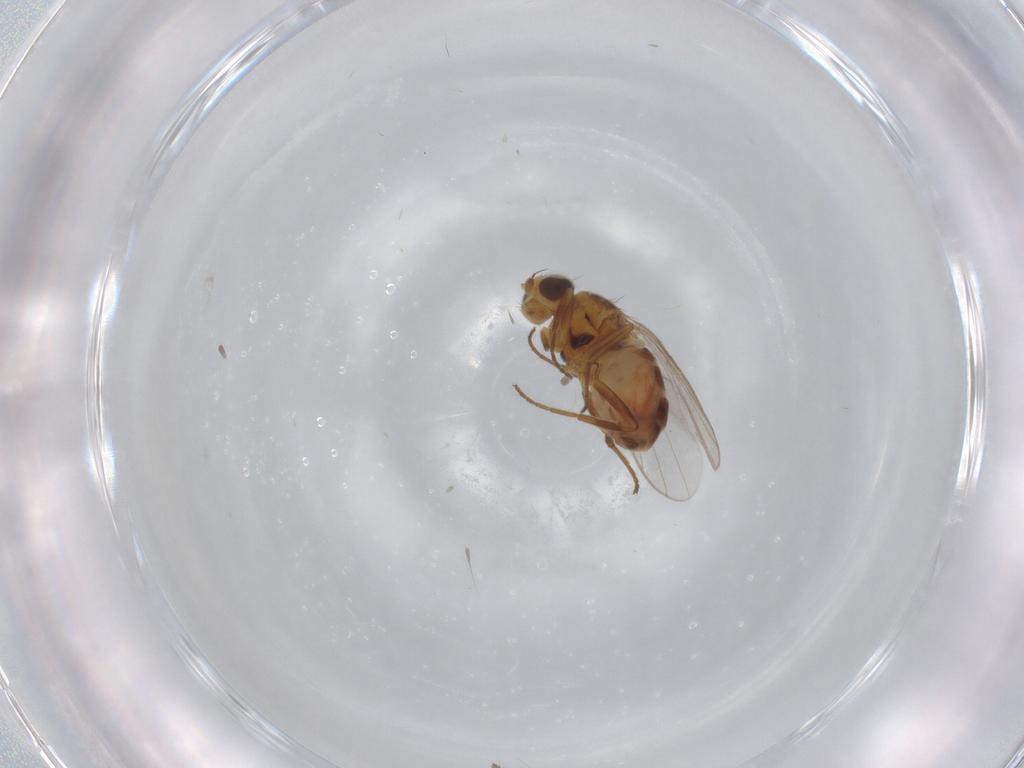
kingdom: Animalia
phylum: Arthropoda
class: Insecta
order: Diptera
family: Chloropidae
